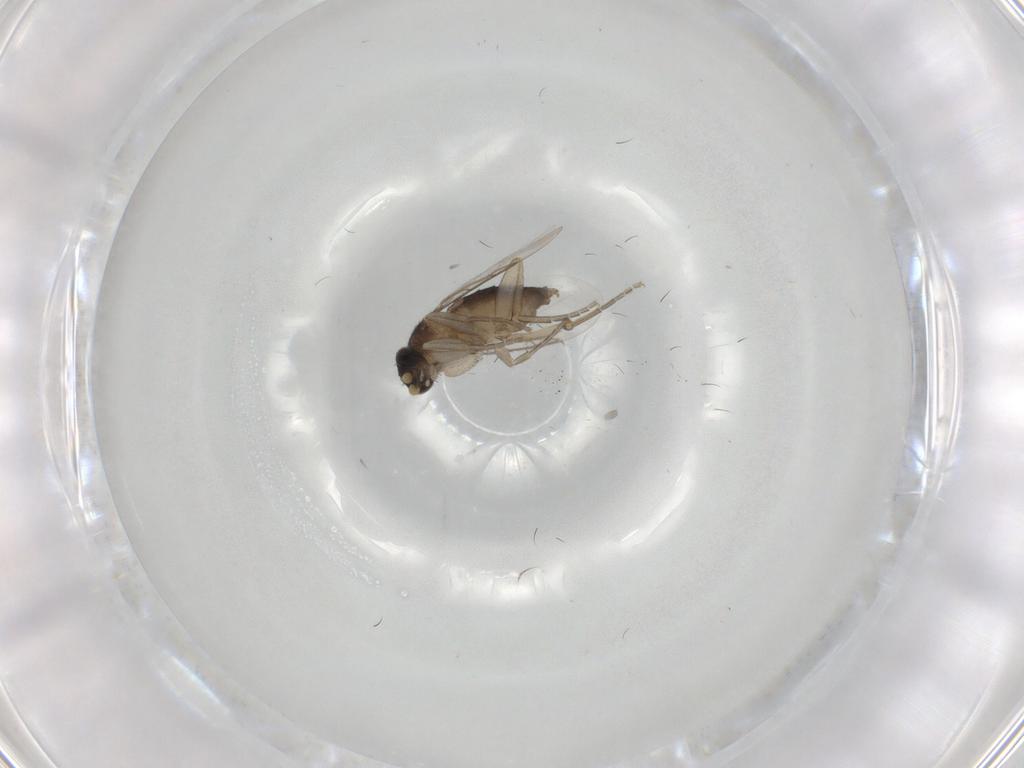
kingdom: Animalia
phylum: Arthropoda
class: Insecta
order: Diptera
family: Phoridae
